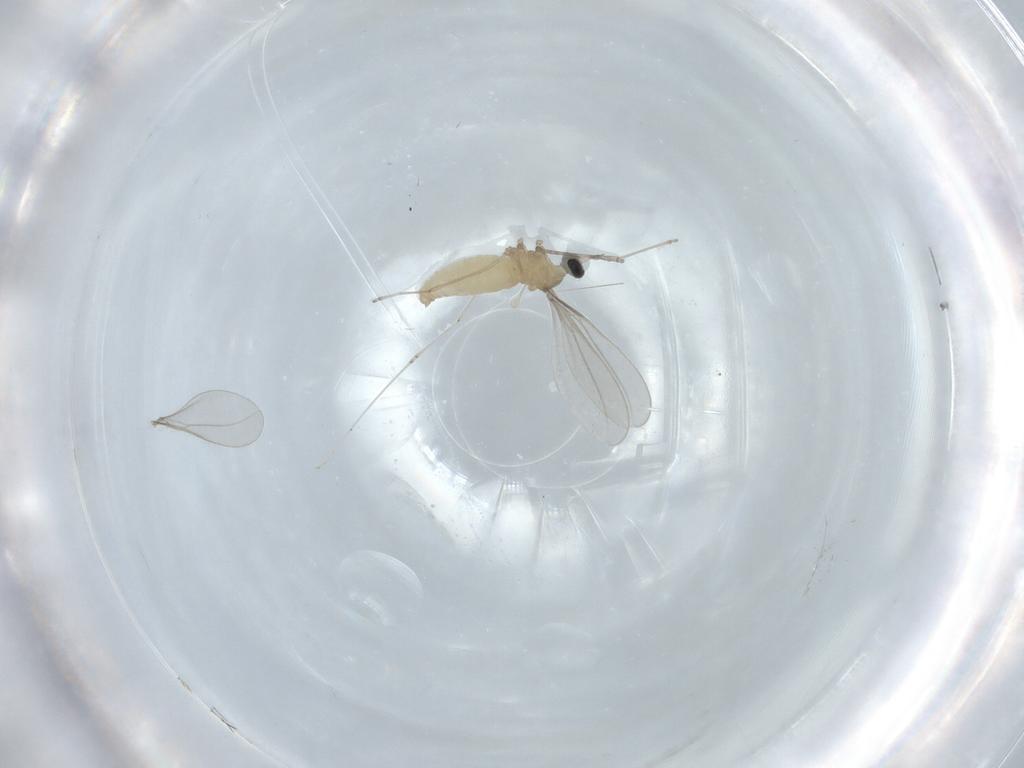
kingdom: Animalia
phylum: Arthropoda
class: Insecta
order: Diptera
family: Cecidomyiidae
